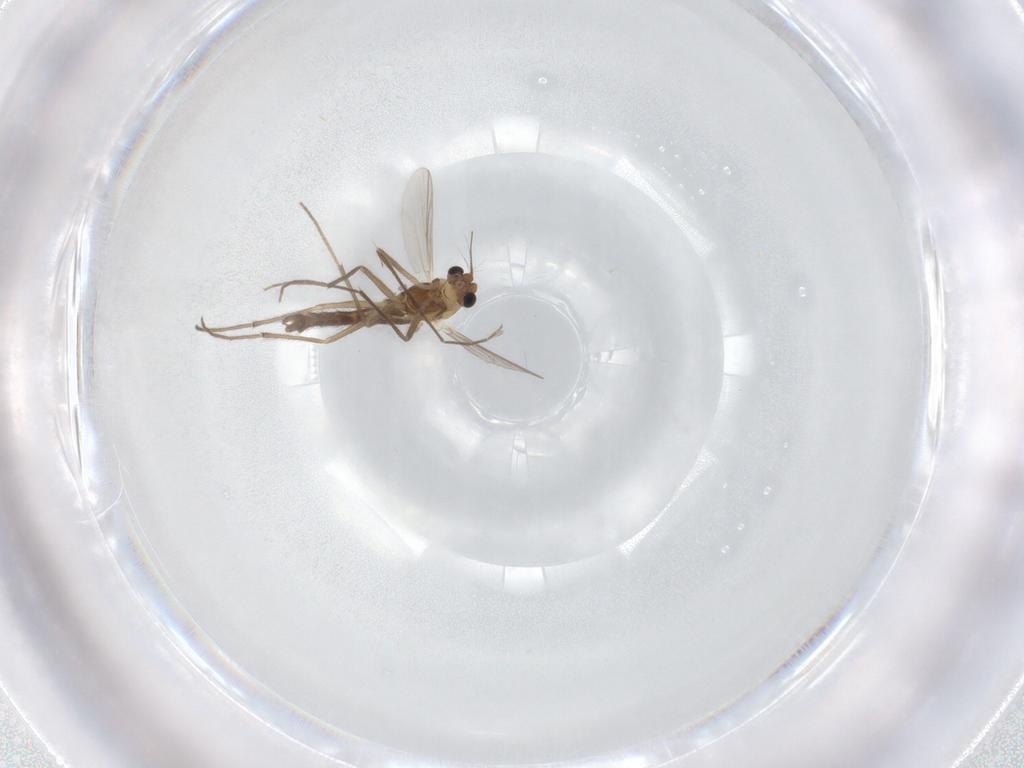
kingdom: Animalia
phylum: Arthropoda
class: Insecta
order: Diptera
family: Chironomidae
